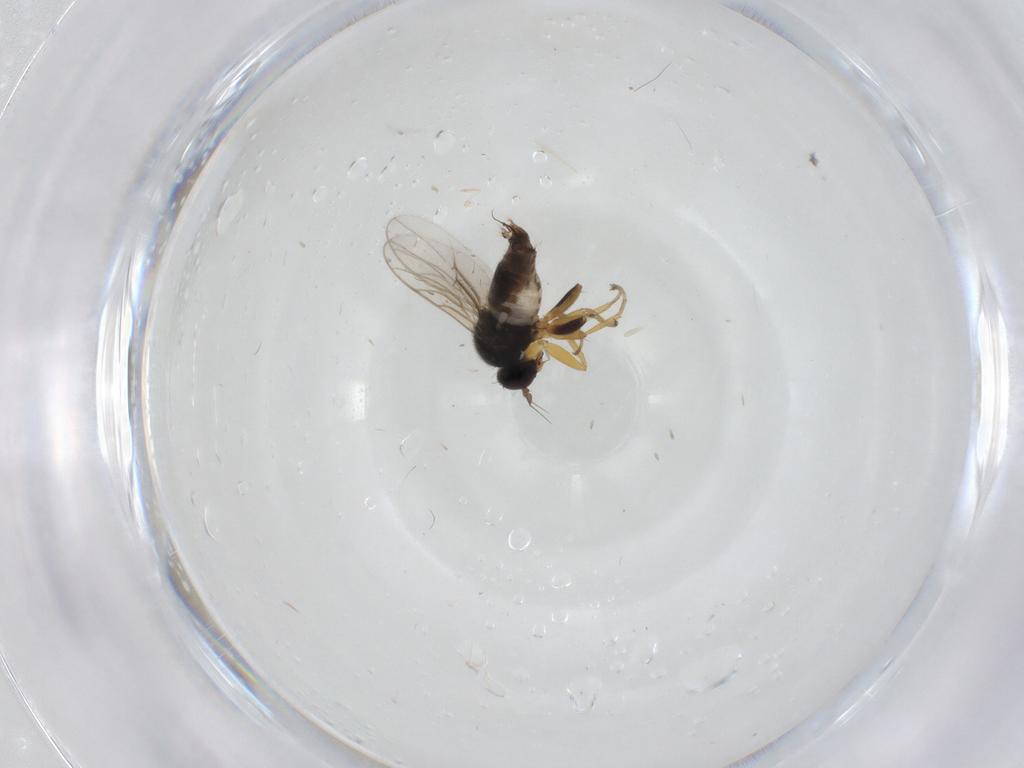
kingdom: Animalia
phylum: Arthropoda
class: Insecta
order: Diptera
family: Hybotidae
